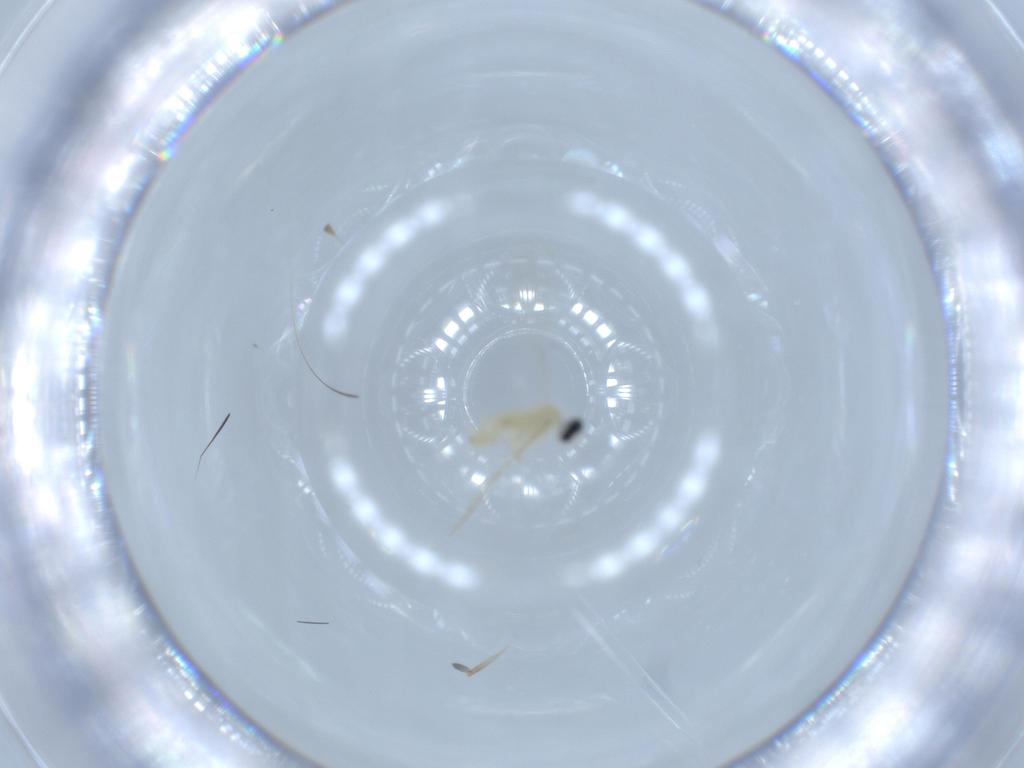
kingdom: Animalia
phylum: Arthropoda
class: Insecta
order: Diptera
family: Cecidomyiidae
